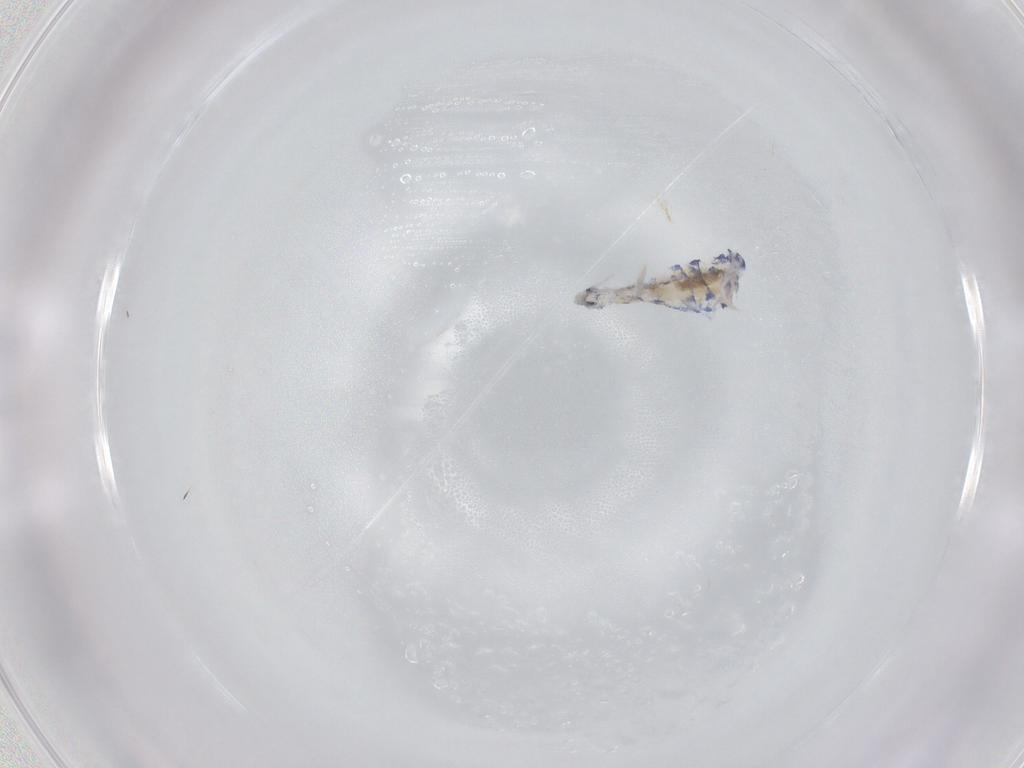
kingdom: Animalia
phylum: Arthropoda
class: Collembola
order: Entomobryomorpha
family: Entomobryidae
